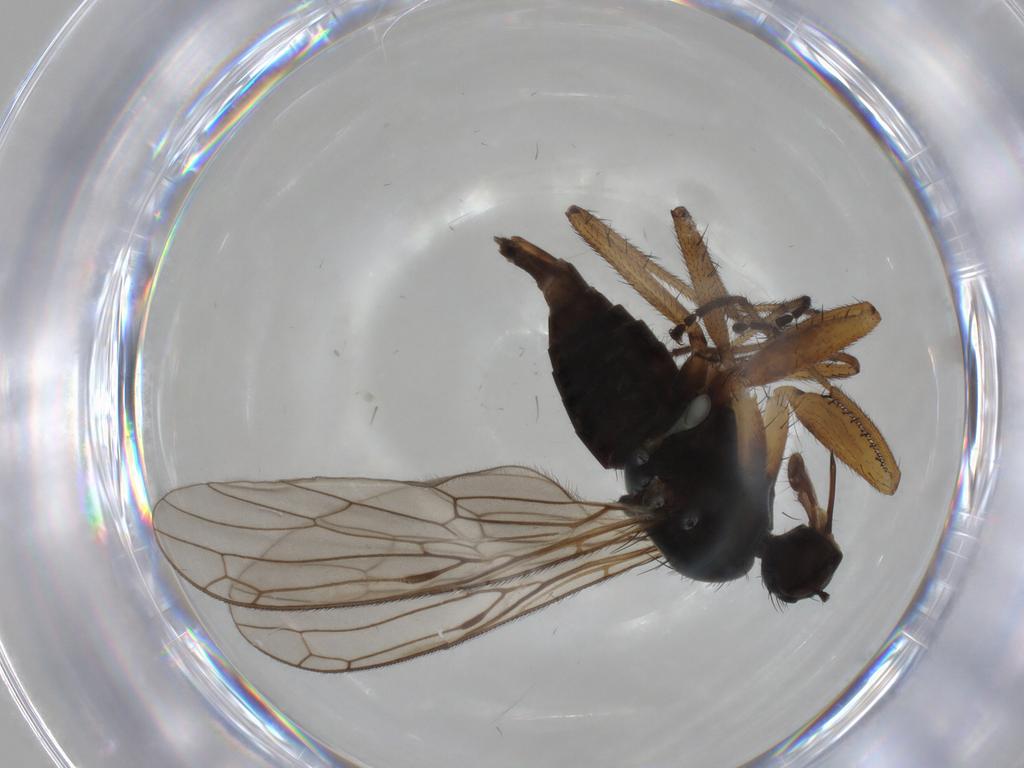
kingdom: Animalia
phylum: Arthropoda
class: Insecta
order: Diptera
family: Empididae
